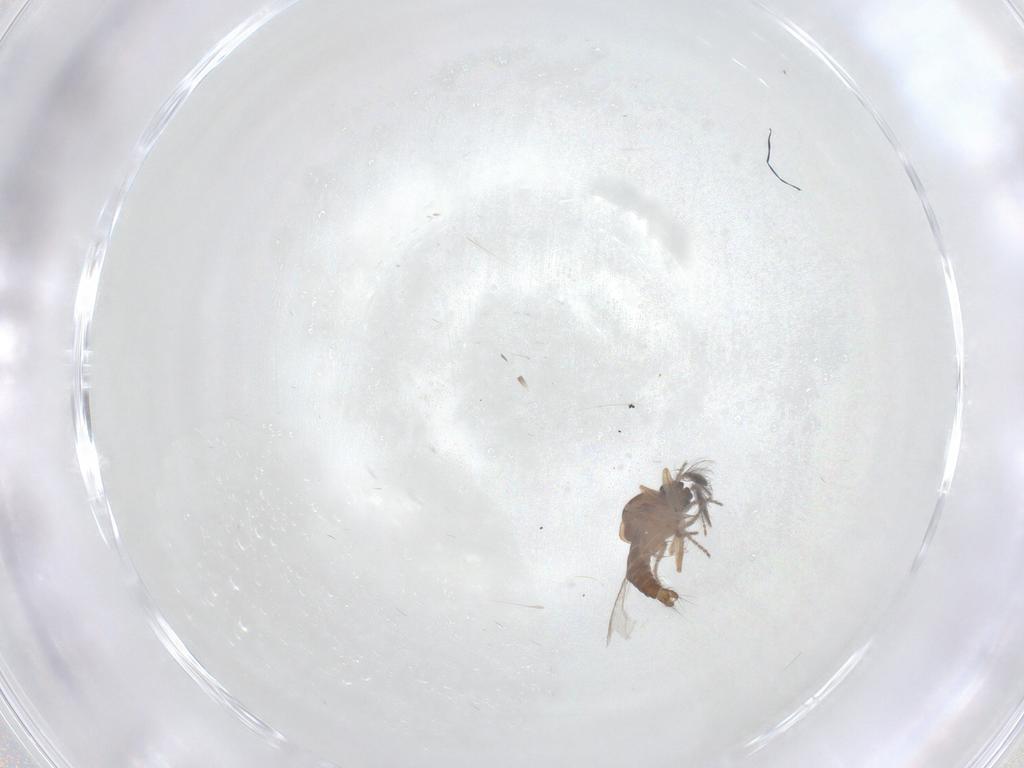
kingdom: Animalia
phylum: Arthropoda
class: Insecta
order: Diptera
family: Ceratopogonidae
